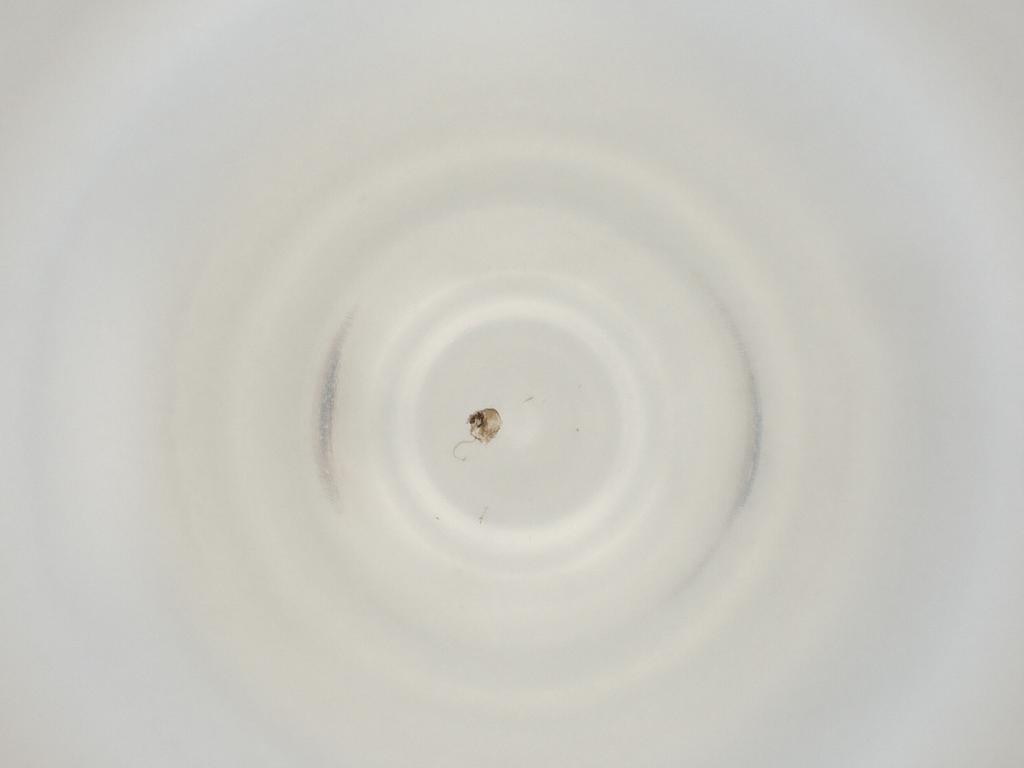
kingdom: Animalia
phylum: Arthropoda
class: Insecta
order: Diptera
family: Cecidomyiidae
